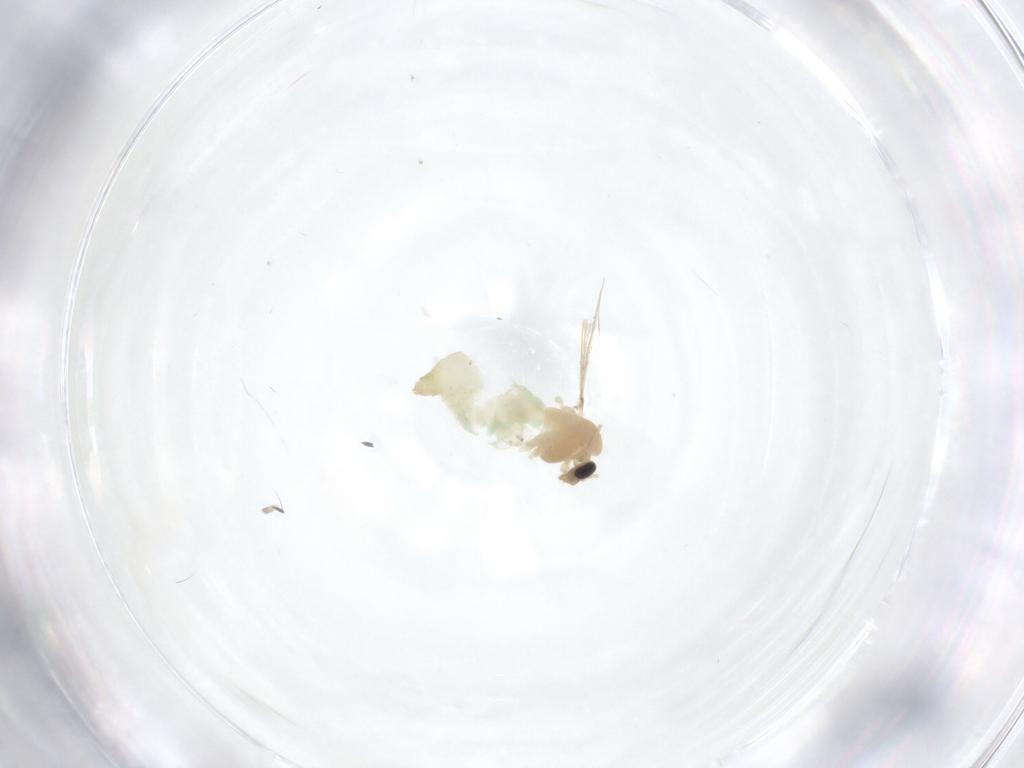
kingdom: Animalia
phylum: Arthropoda
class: Insecta
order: Diptera
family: Chironomidae
